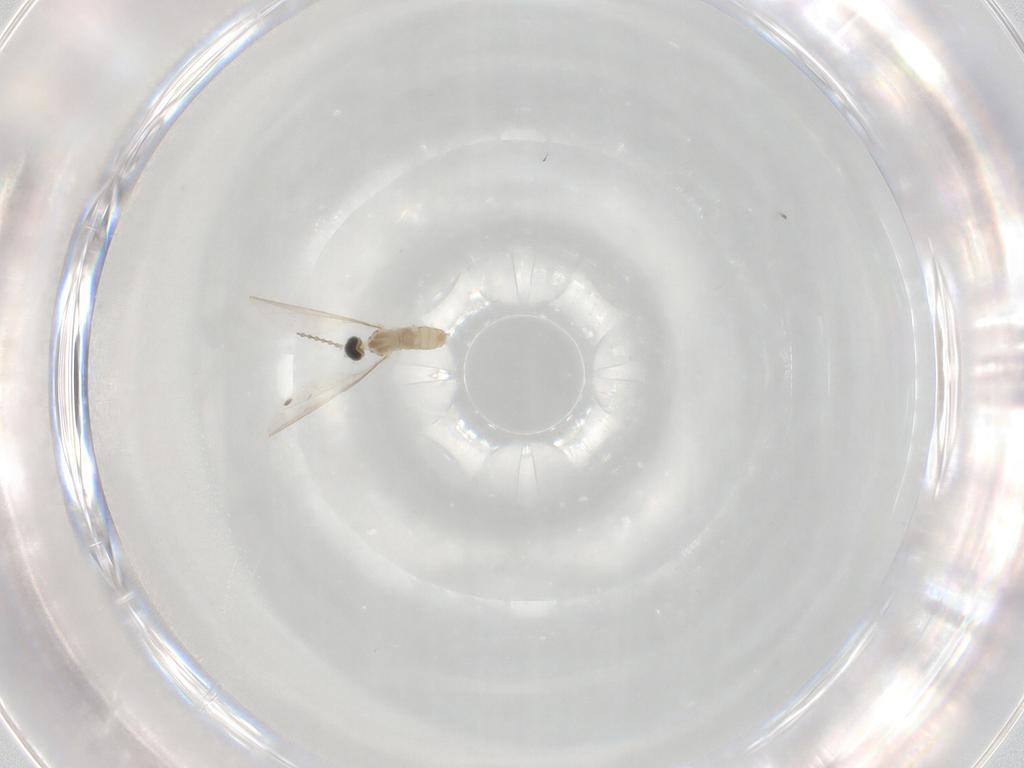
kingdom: Animalia
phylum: Arthropoda
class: Insecta
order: Diptera
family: Cecidomyiidae
